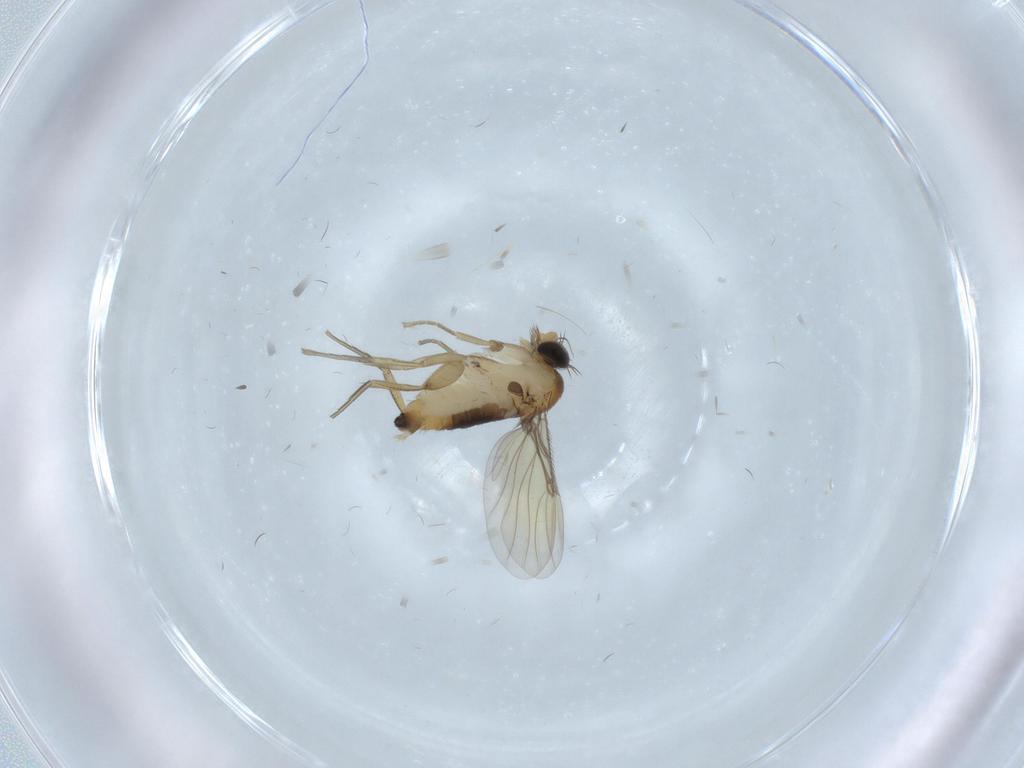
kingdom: Animalia
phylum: Arthropoda
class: Insecta
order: Diptera
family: Phoridae
